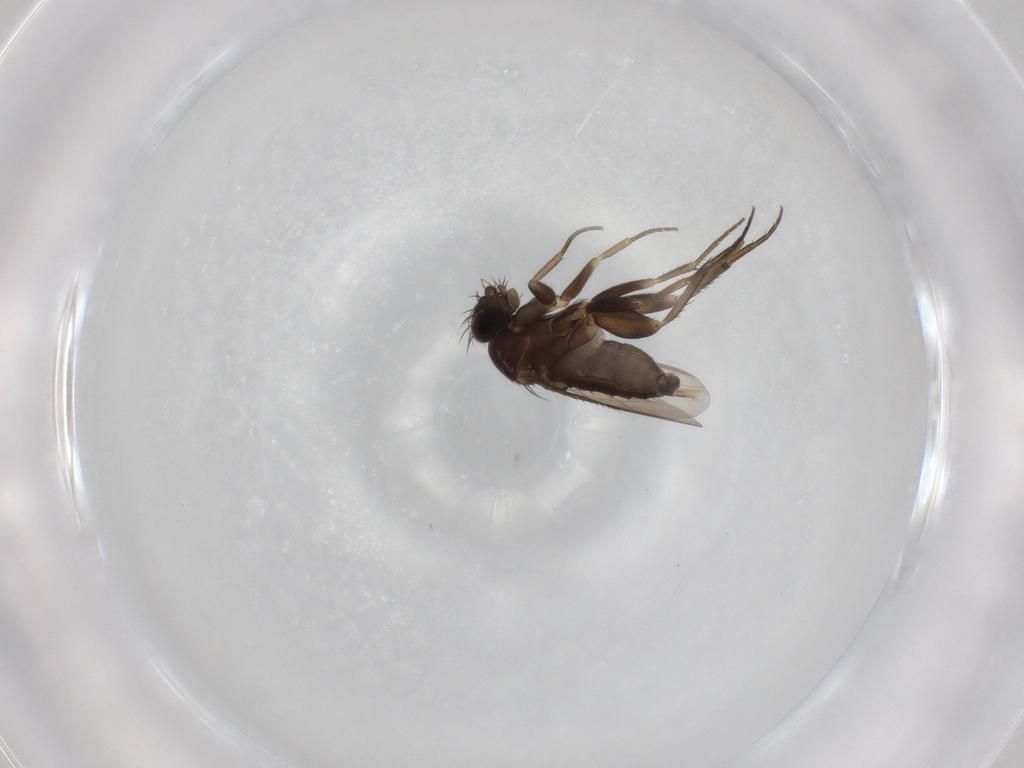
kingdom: Animalia
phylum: Arthropoda
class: Insecta
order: Diptera
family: Phoridae
